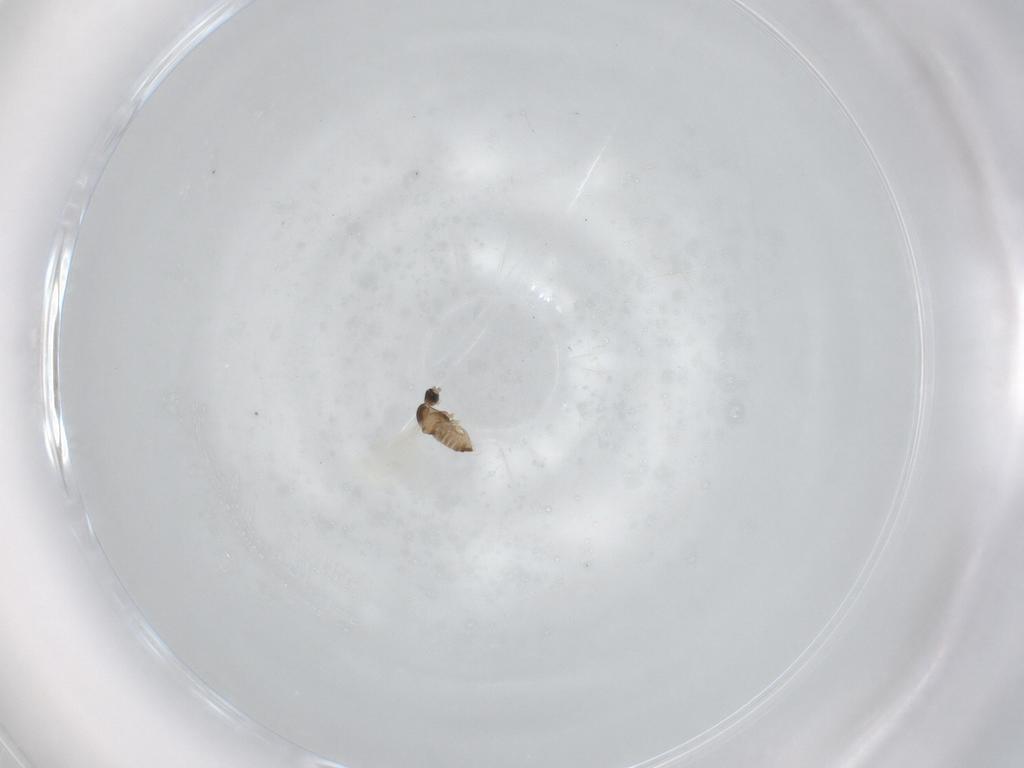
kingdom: Animalia
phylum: Arthropoda
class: Insecta
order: Diptera
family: Cecidomyiidae
